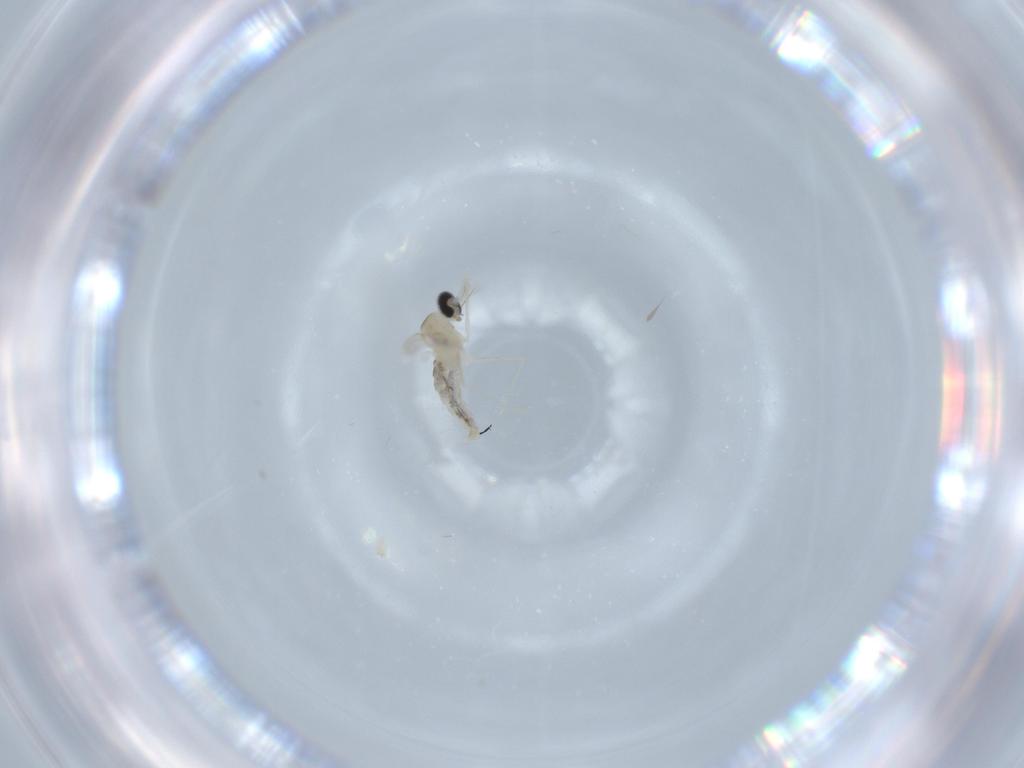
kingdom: Animalia
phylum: Arthropoda
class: Insecta
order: Diptera
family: Ceratopogonidae
